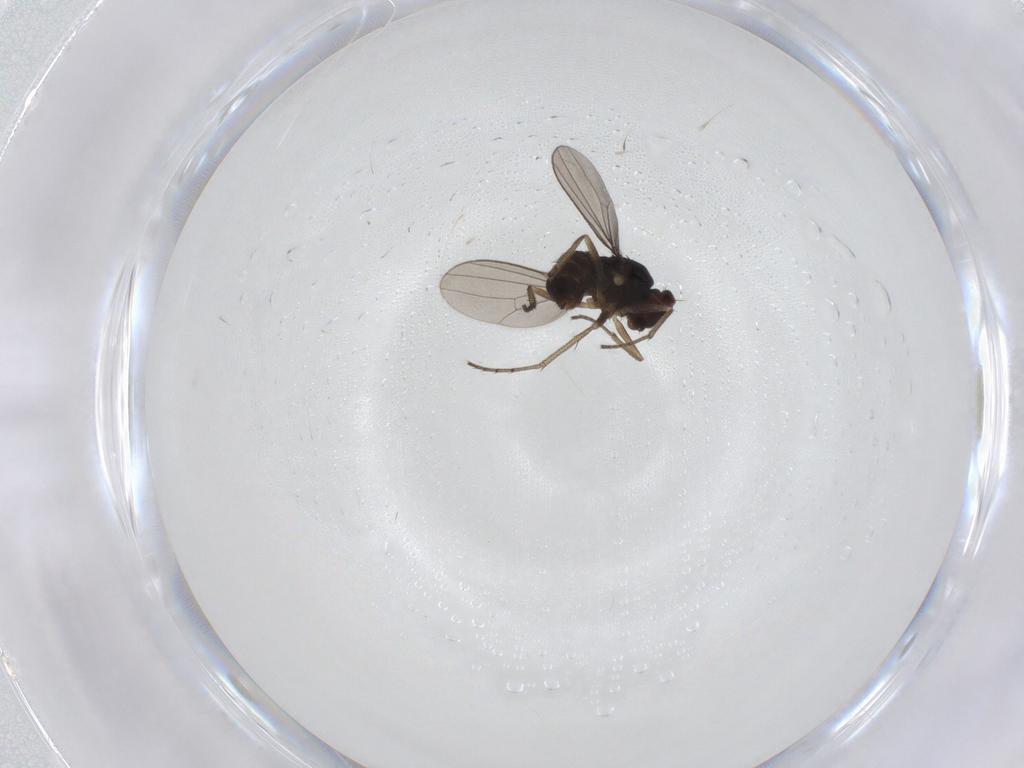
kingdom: Animalia
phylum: Arthropoda
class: Insecta
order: Diptera
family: Dolichopodidae
